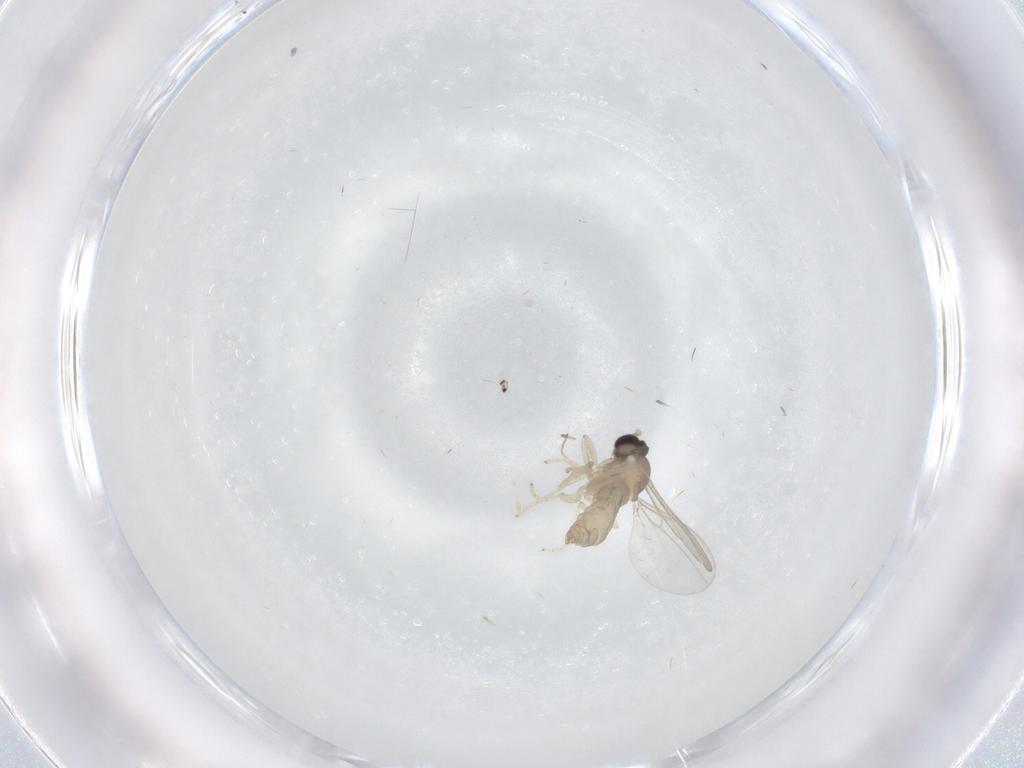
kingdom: Animalia
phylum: Arthropoda
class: Insecta
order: Diptera
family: Cecidomyiidae
